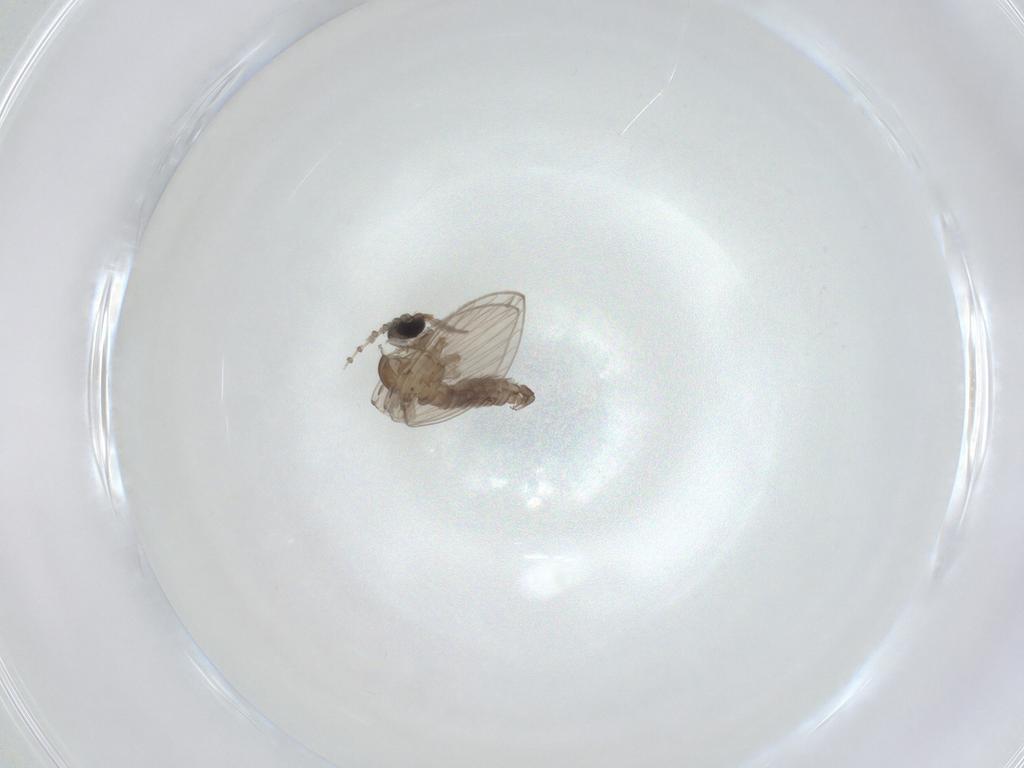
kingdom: Animalia
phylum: Arthropoda
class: Insecta
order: Diptera
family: Psychodidae
